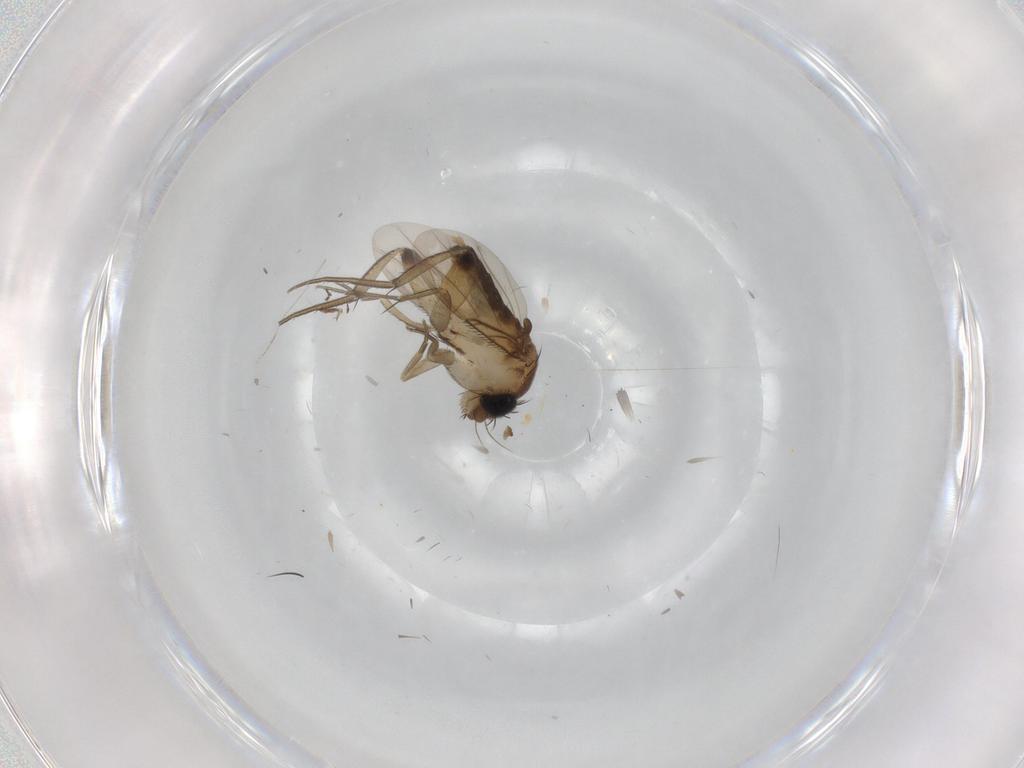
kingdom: Animalia
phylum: Arthropoda
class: Insecta
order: Diptera
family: Phoridae
